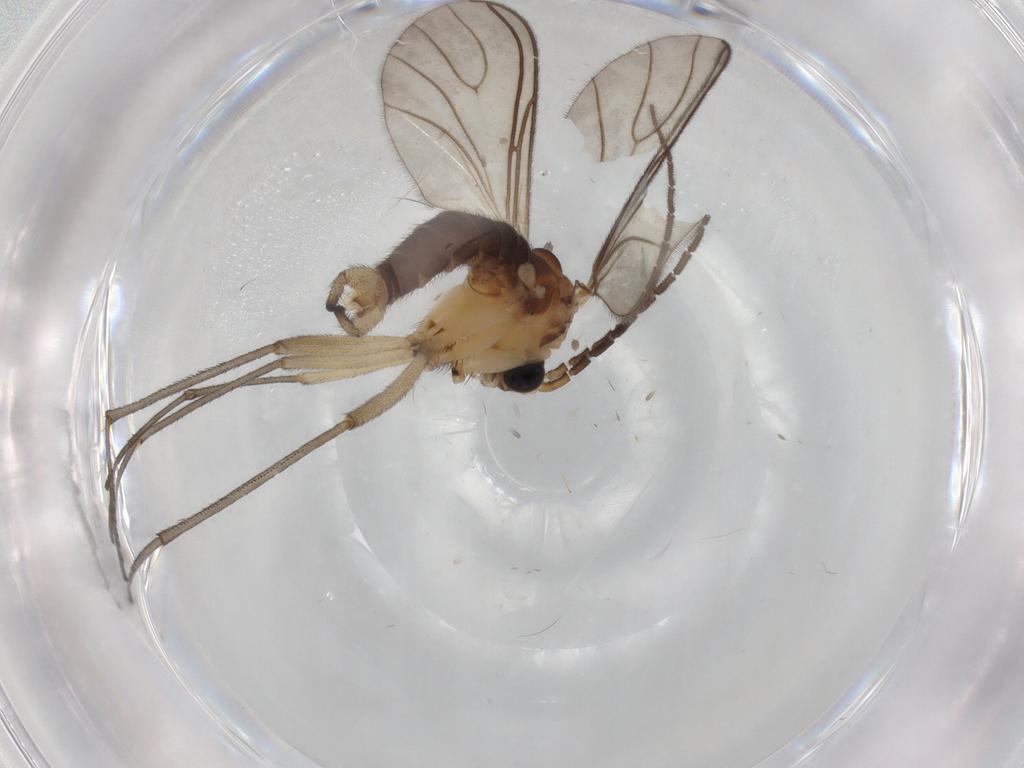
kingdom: Animalia
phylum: Arthropoda
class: Insecta
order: Diptera
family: Sciaridae
